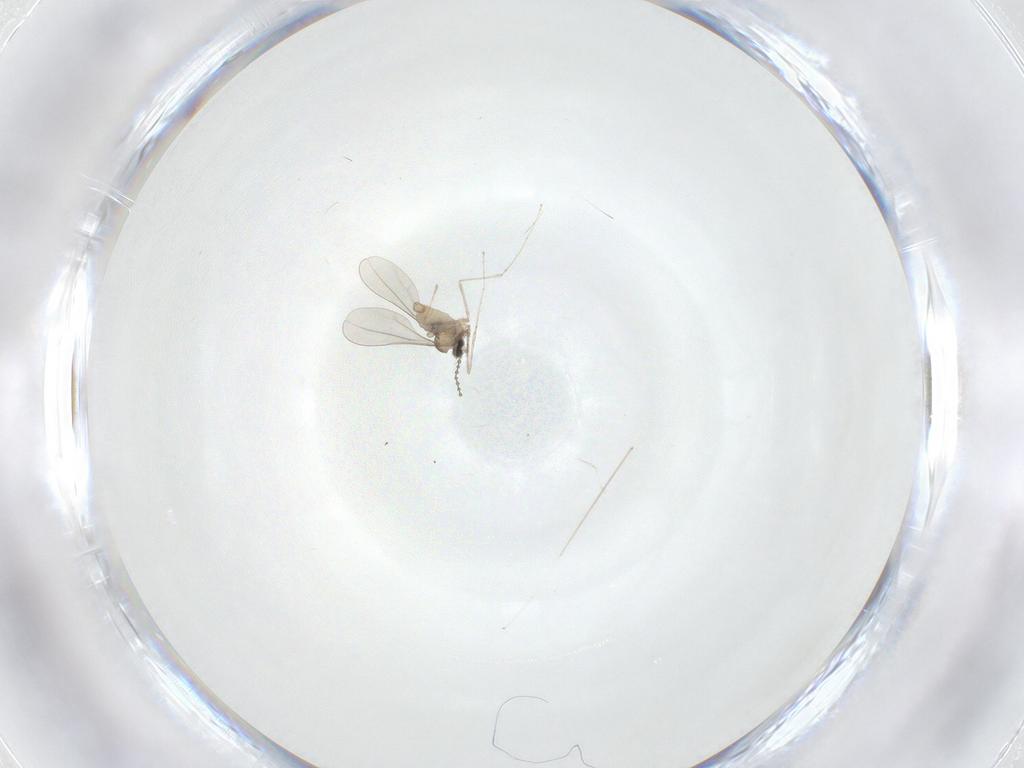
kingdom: Animalia
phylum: Arthropoda
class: Insecta
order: Diptera
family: Cecidomyiidae
